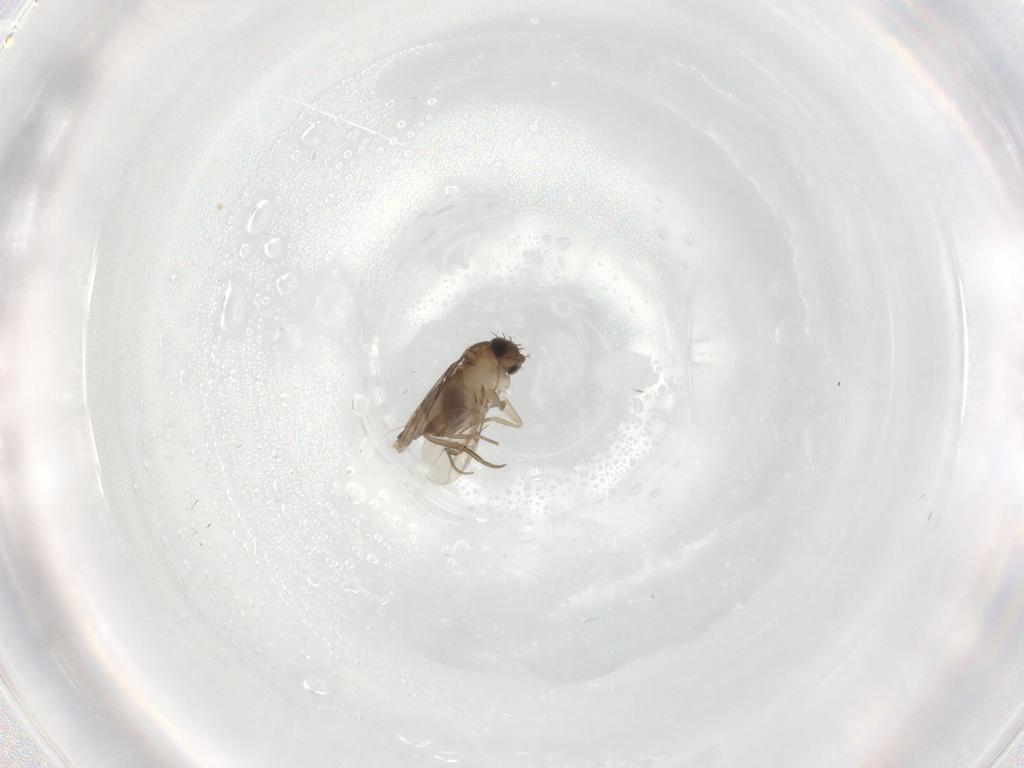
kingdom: Animalia
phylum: Arthropoda
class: Insecta
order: Diptera
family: Phoridae
